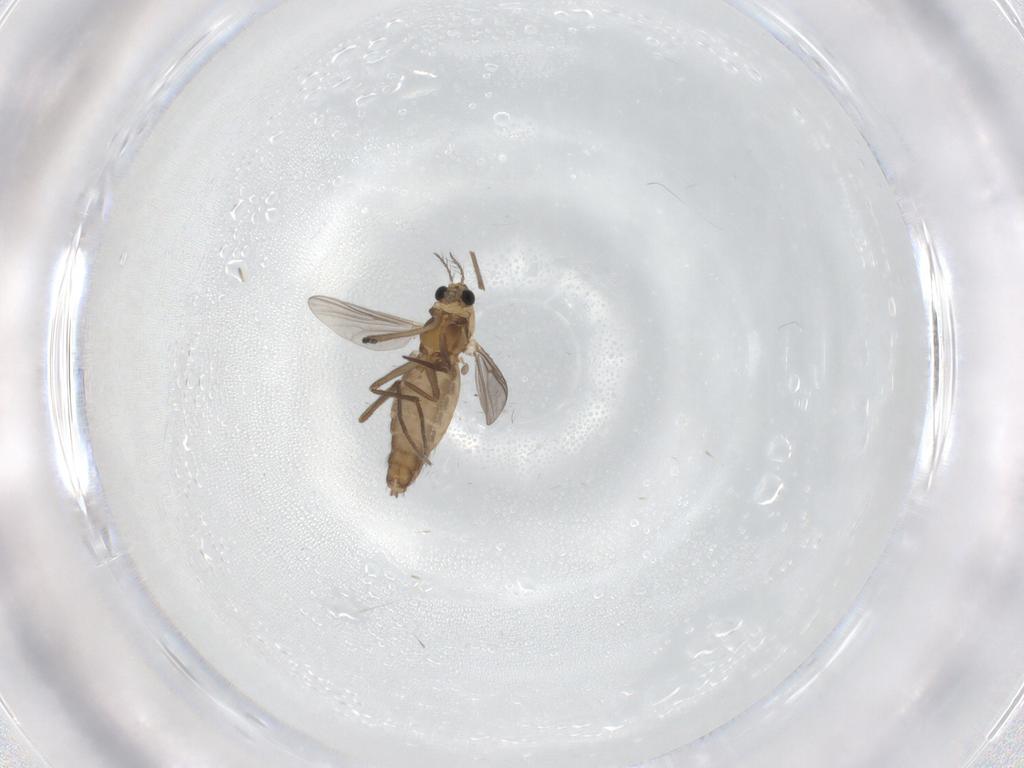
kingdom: Animalia
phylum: Arthropoda
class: Insecta
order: Diptera
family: Chironomidae
